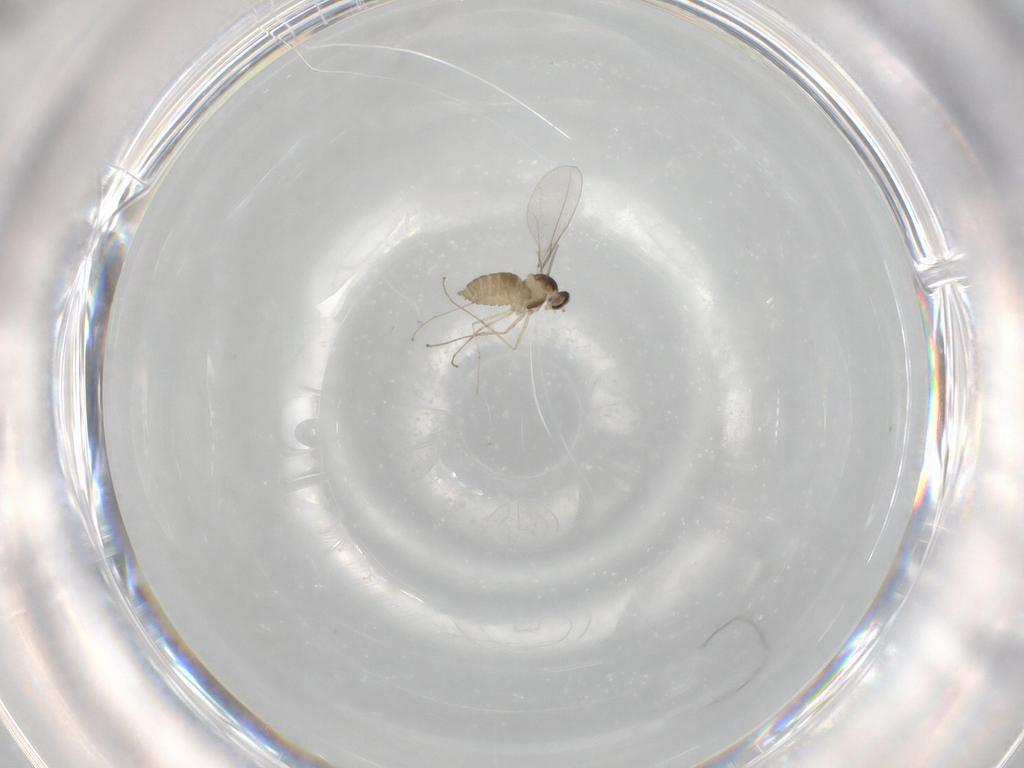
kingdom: Animalia
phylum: Arthropoda
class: Insecta
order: Diptera
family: Cecidomyiidae
